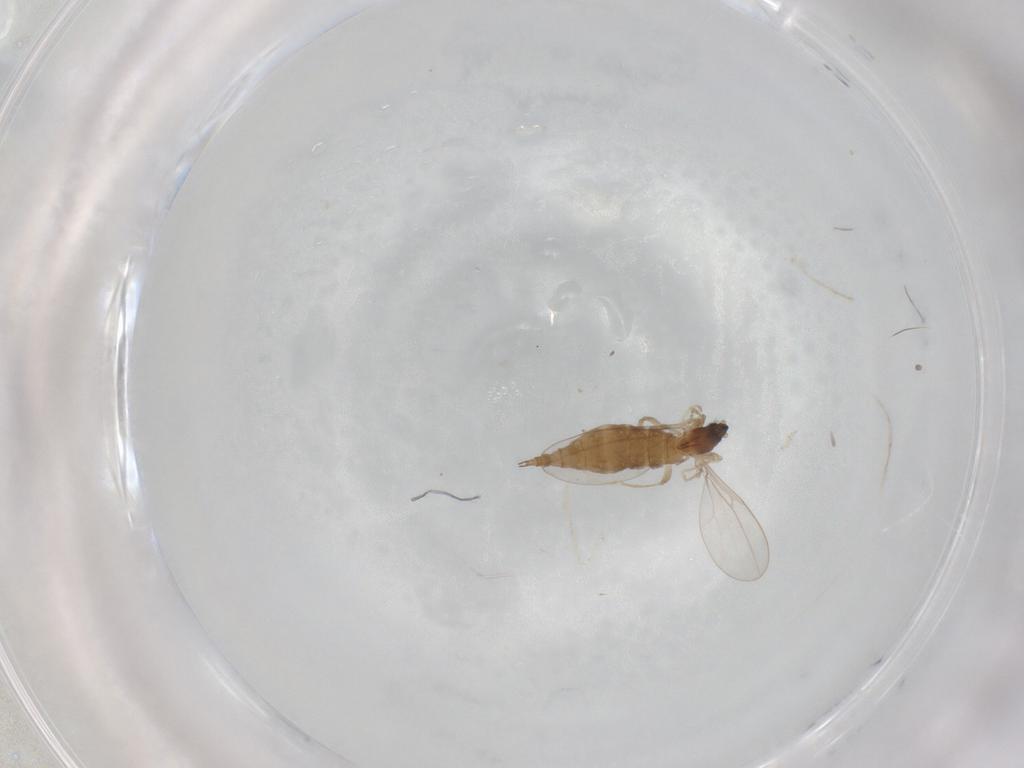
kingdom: Animalia
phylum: Arthropoda
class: Insecta
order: Diptera
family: Cecidomyiidae
